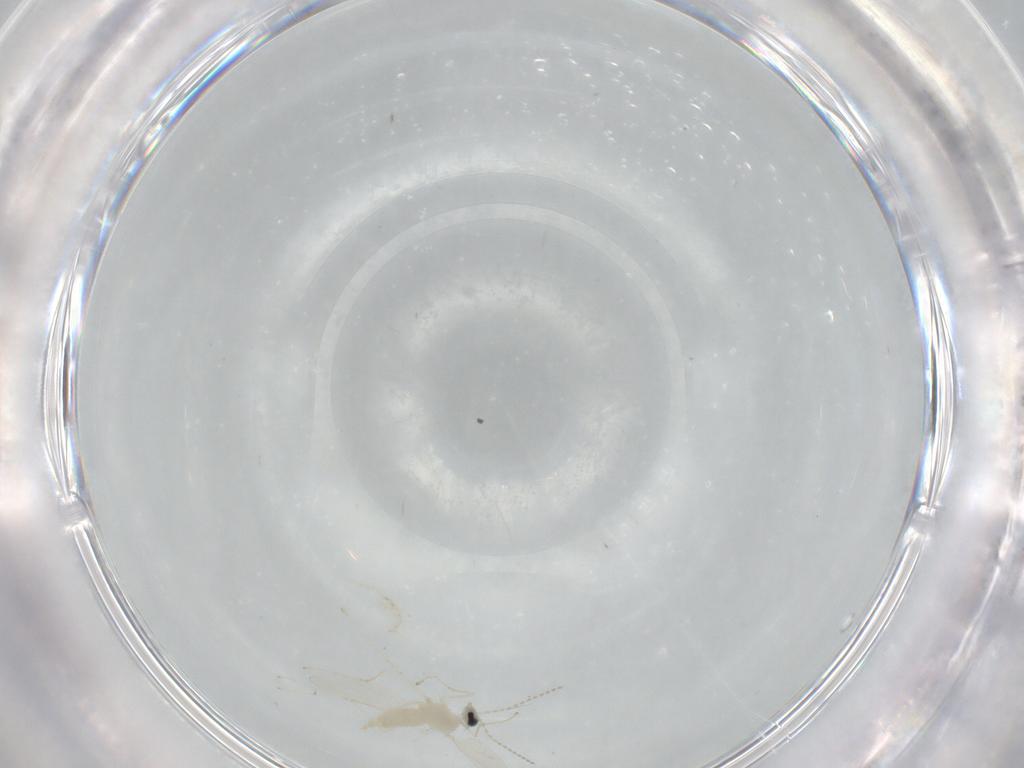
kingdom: Animalia
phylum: Arthropoda
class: Insecta
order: Diptera
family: Cecidomyiidae
